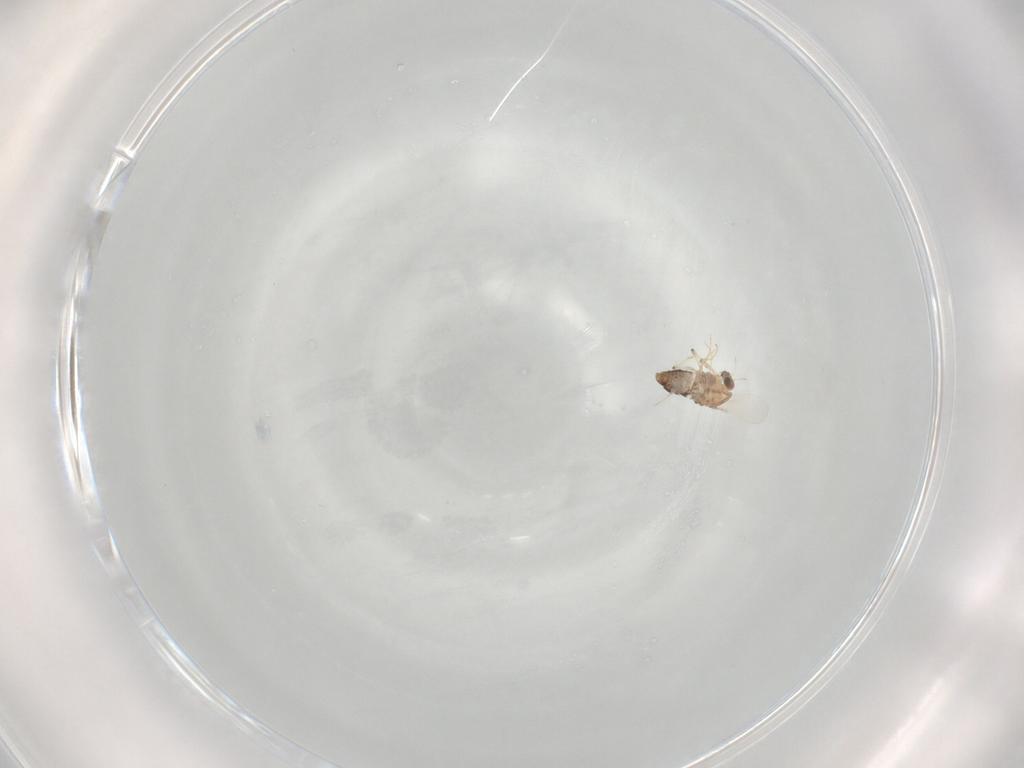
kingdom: Animalia
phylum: Arthropoda
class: Insecta
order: Diptera
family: Chironomidae
